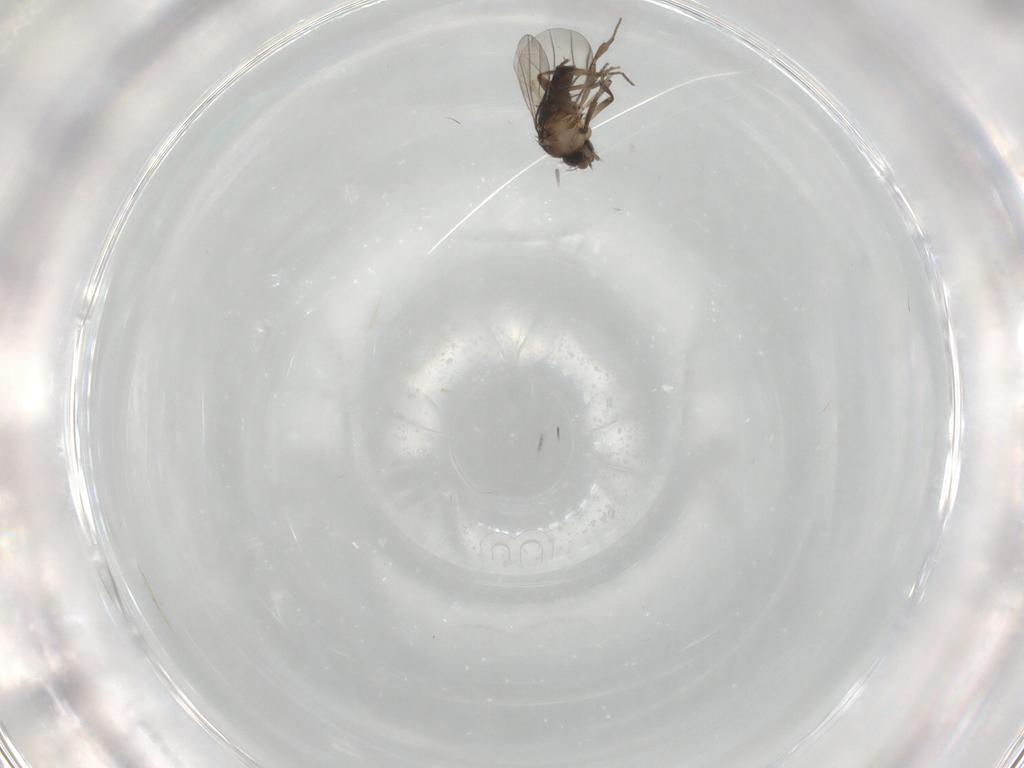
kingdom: Animalia
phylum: Arthropoda
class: Insecta
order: Diptera
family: Phoridae
